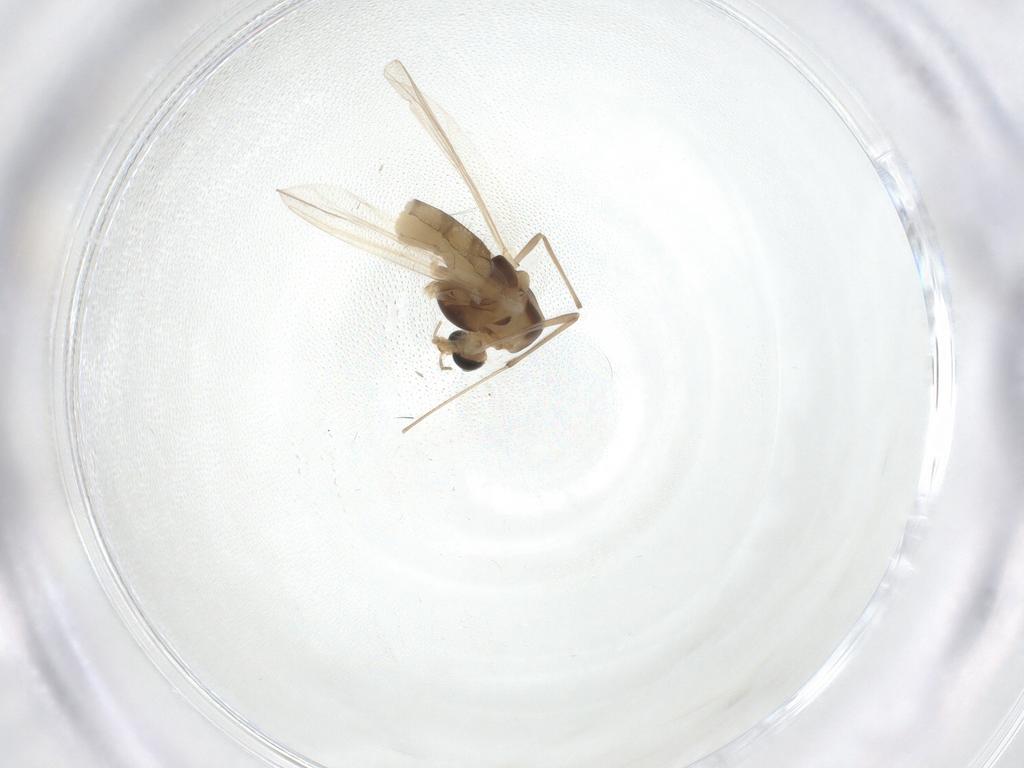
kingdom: Animalia
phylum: Arthropoda
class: Insecta
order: Diptera
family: Chironomidae
